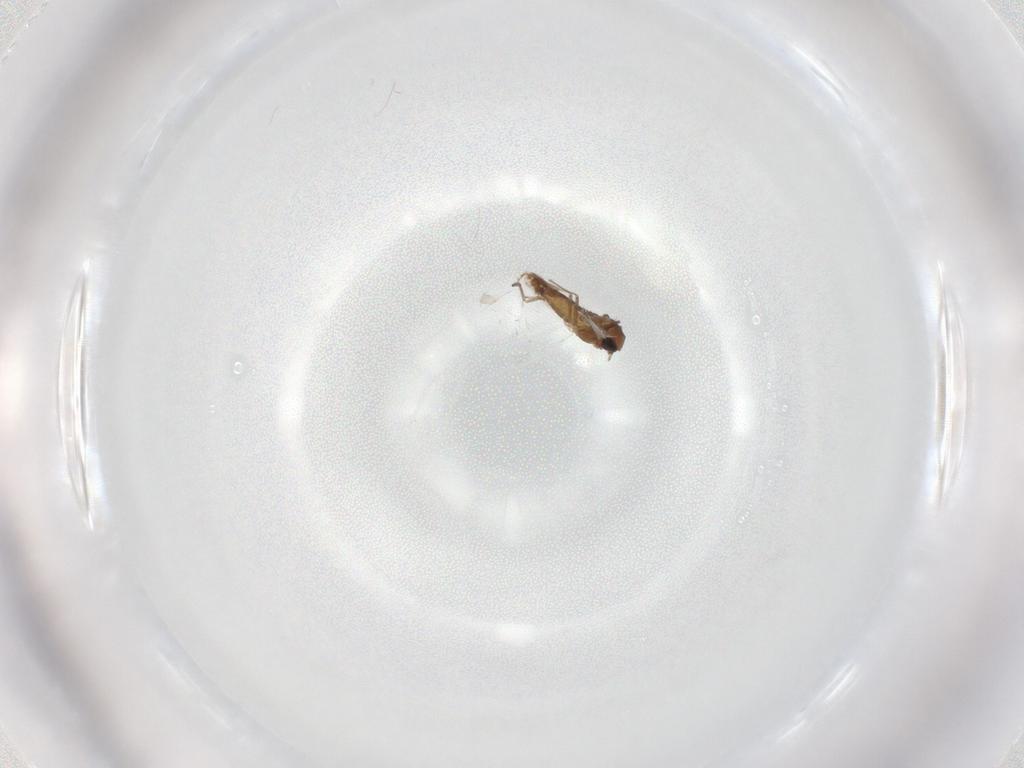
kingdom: Animalia
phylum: Arthropoda
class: Insecta
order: Diptera
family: Chironomidae
